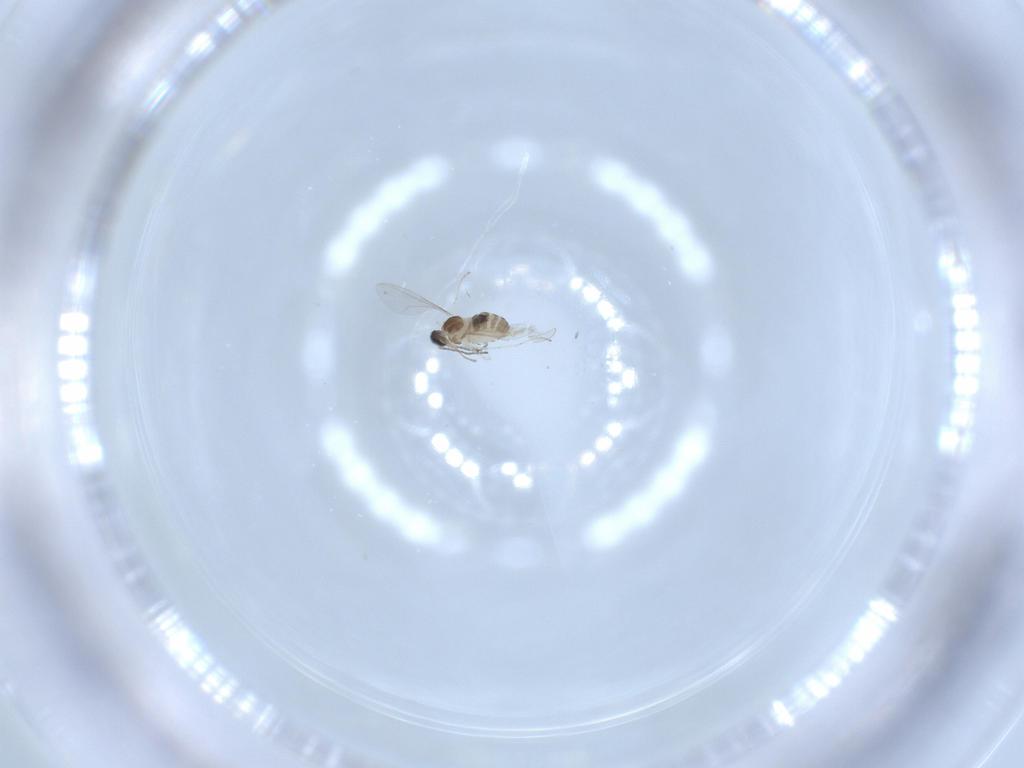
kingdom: Animalia
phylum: Arthropoda
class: Insecta
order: Diptera
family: Cecidomyiidae
